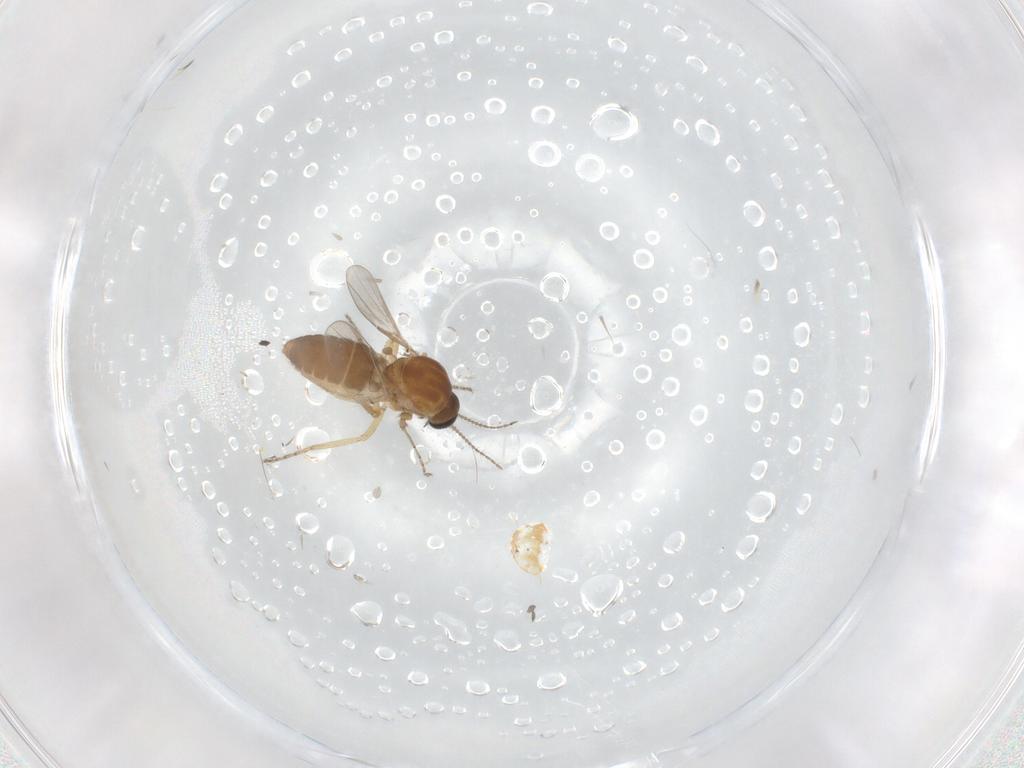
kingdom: Animalia
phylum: Arthropoda
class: Insecta
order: Diptera
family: Ceratopogonidae
